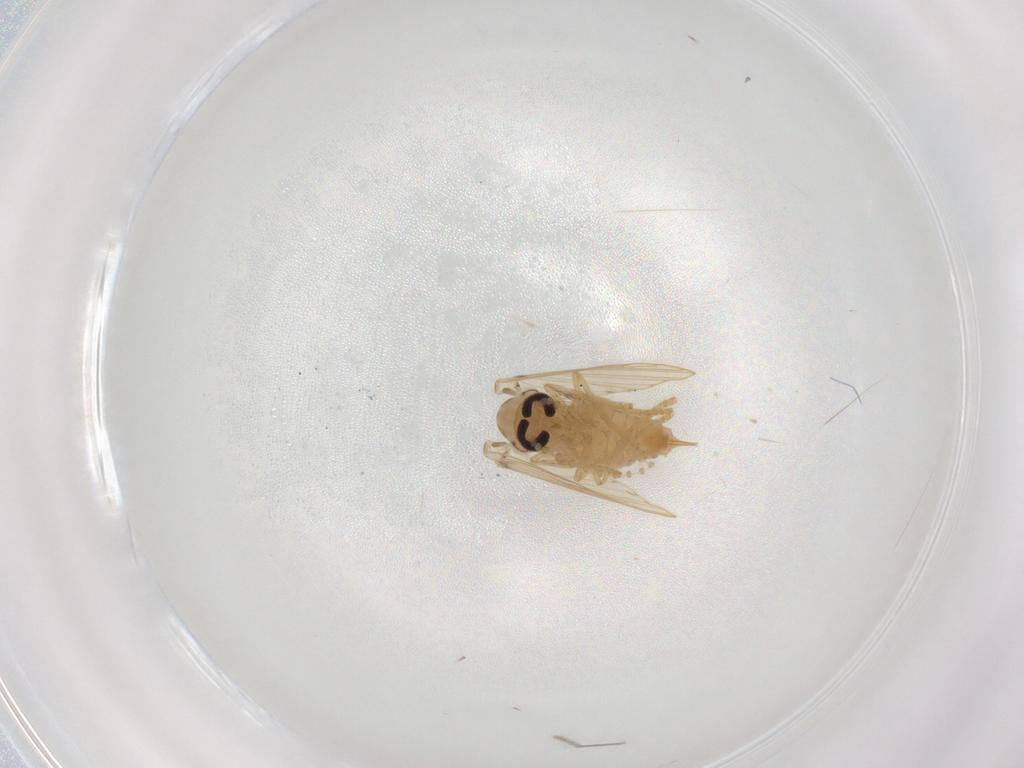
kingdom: Animalia
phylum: Arthropoda
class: Insecta
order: Diptera
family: Psychodidae
